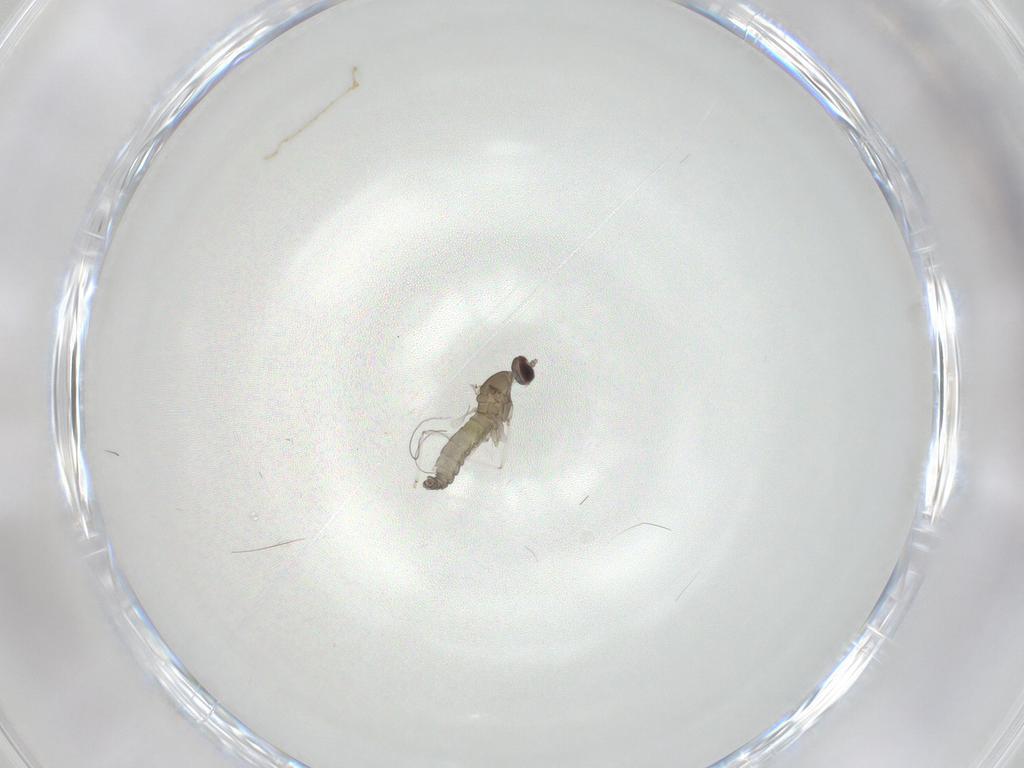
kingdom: Animalia
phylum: Arthropoda
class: Insecta
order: Diptera
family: Cecidomyiidae
